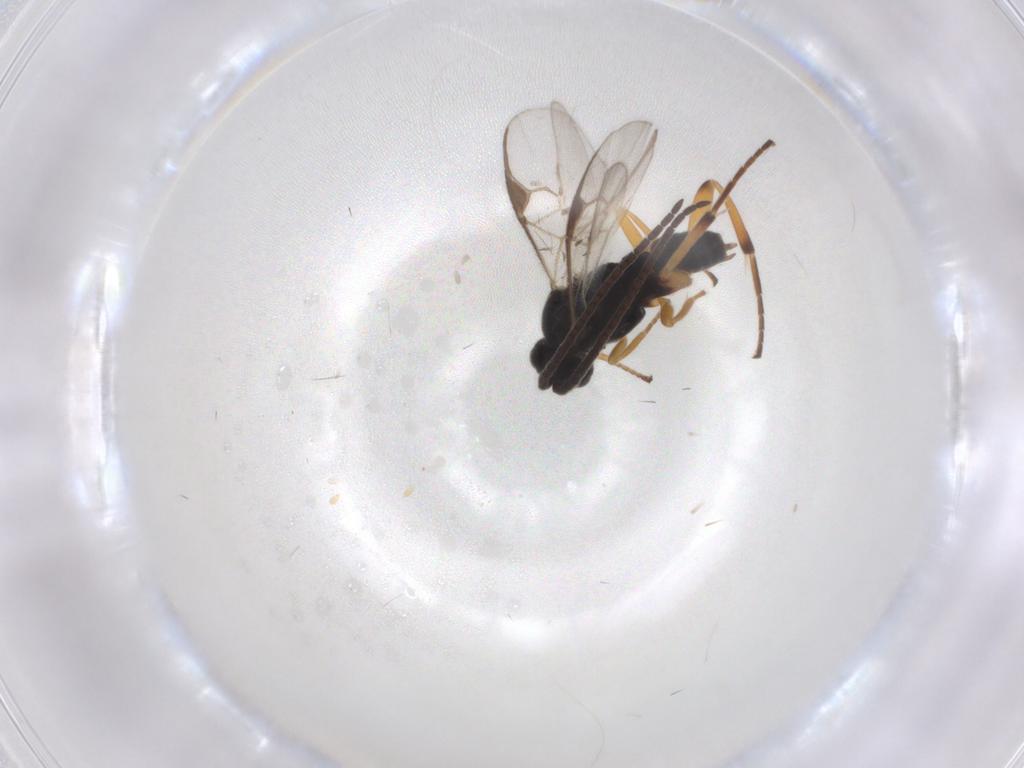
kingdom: Animalia
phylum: Arthropoda
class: Insecta
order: Hymenoptera
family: Braconidae
